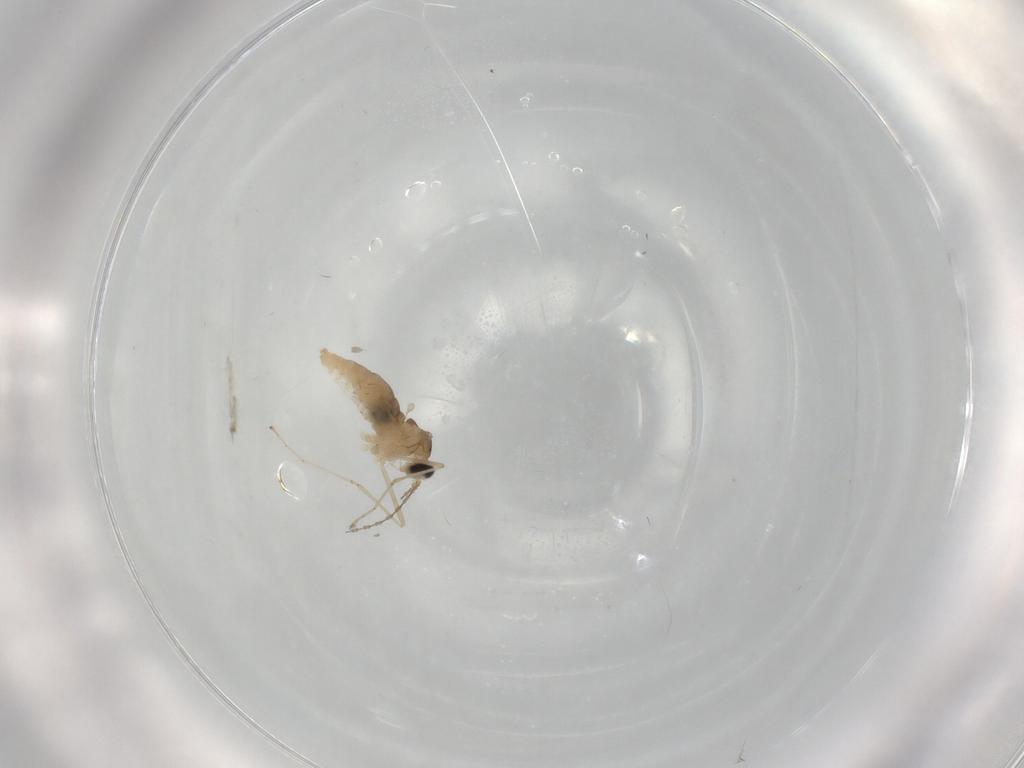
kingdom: Animalia
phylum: Arthropoda
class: Insecta
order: Diptera
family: Cecidomyiidae
